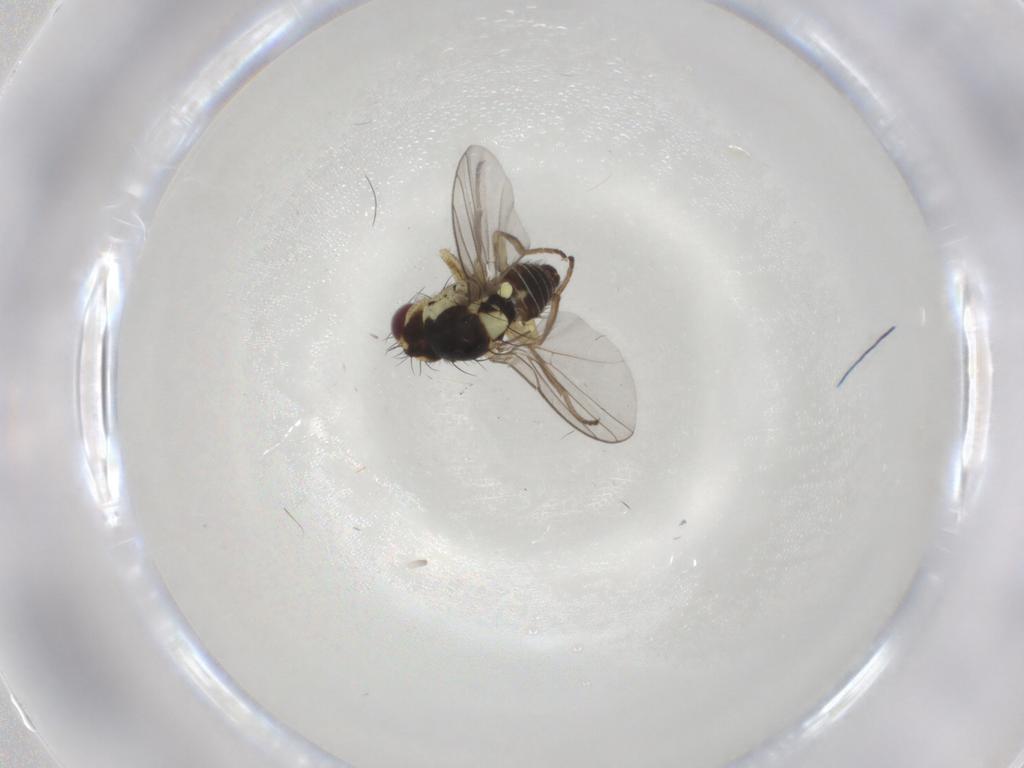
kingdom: Animalia
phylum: Arthropoda
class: Insecta
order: Diptera
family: Agromyzidae
